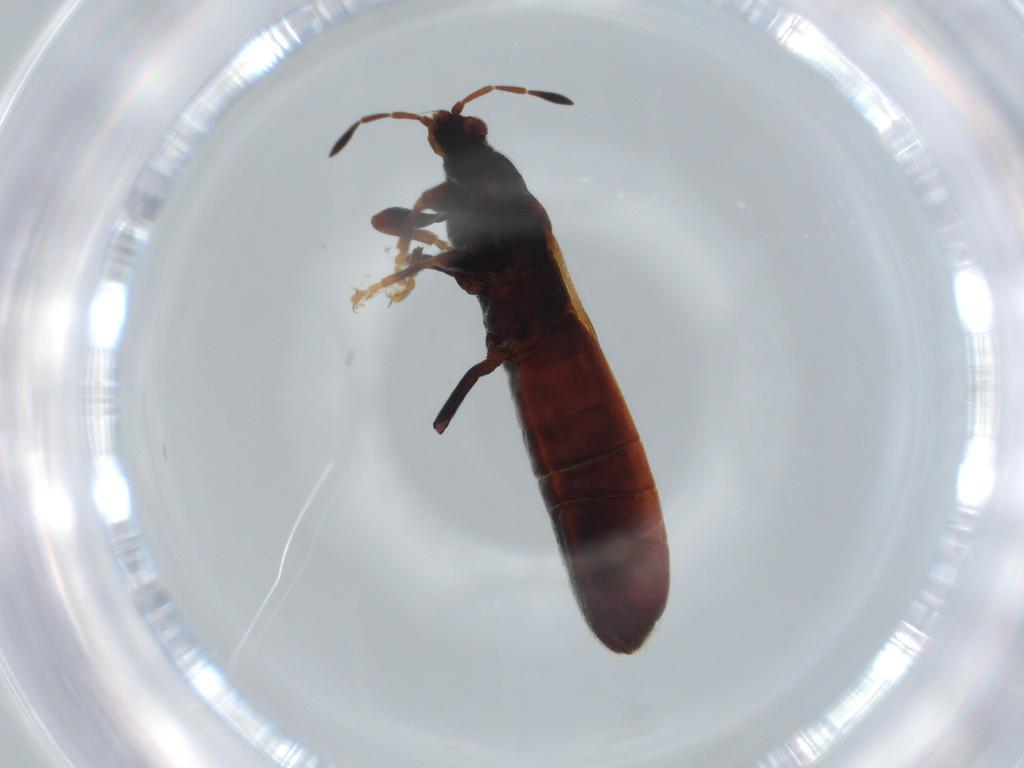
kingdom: Animalia
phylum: Arthropoda
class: Insecta
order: Hemiptera
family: Blissidae
